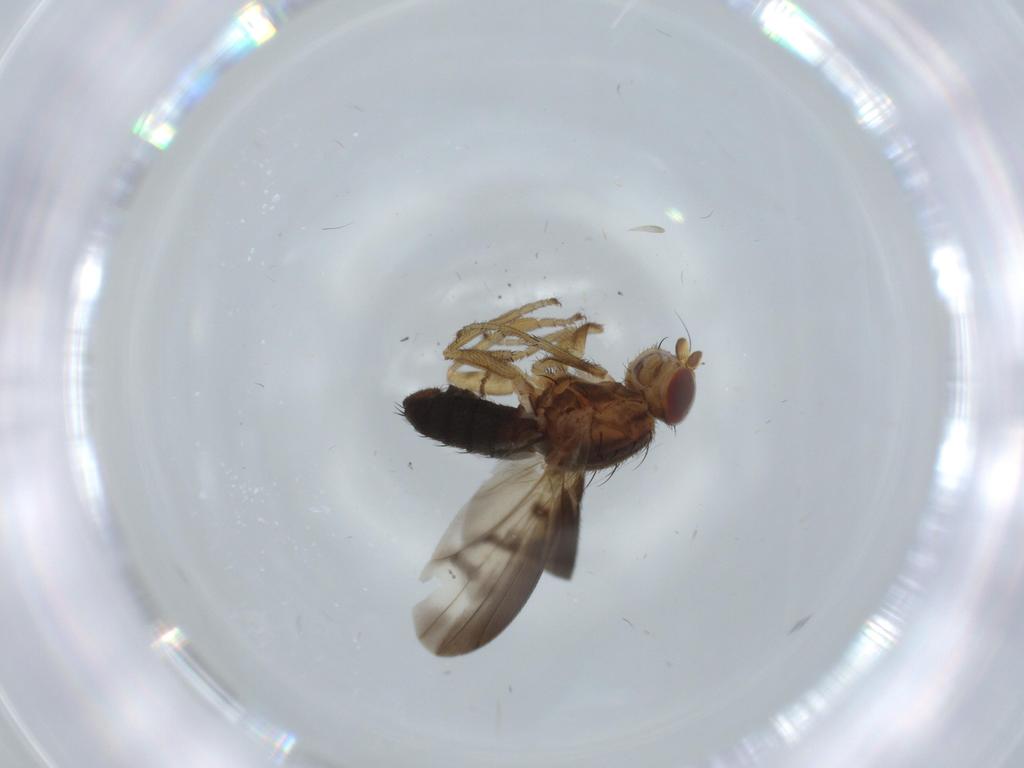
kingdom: Animalia
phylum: Arthropoda
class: Insecta
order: Diptera
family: Heleomyzidae
